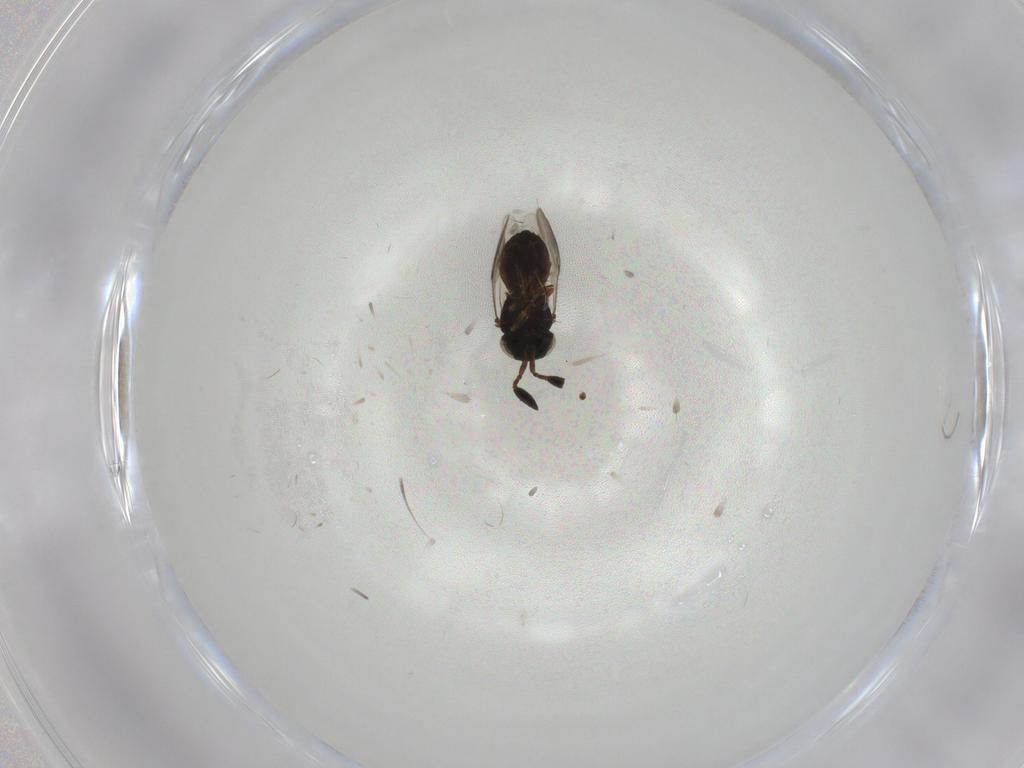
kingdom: Animalia
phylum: Arthropoda
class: Insecta
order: Hymenoptera
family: Scelionidae
